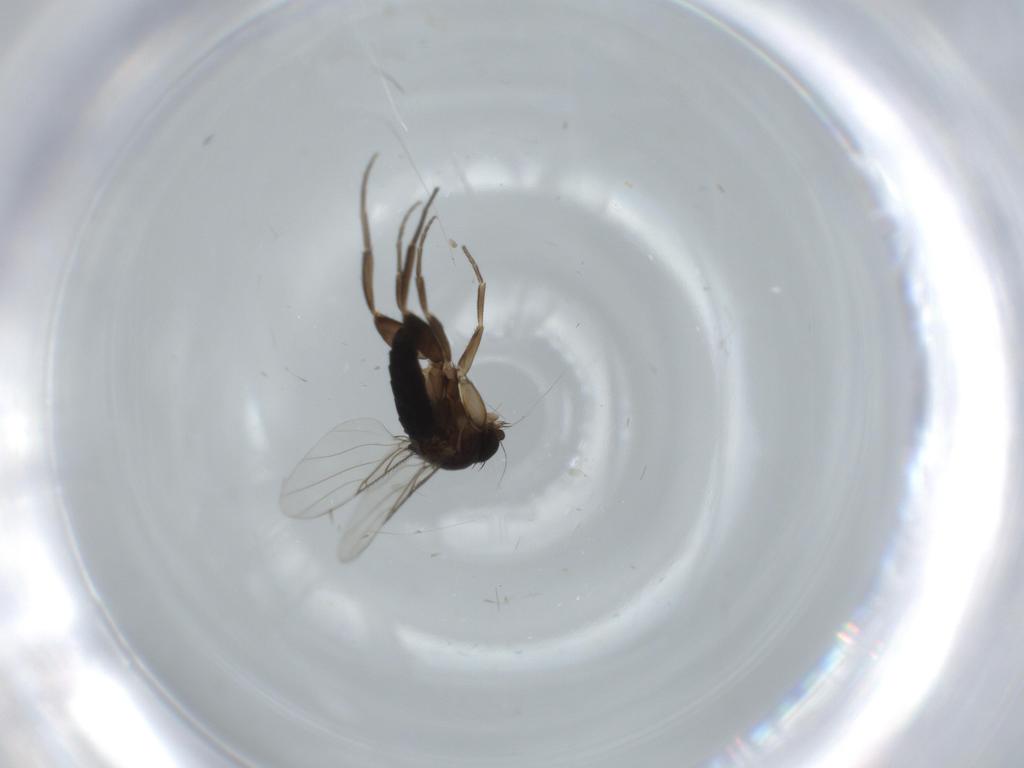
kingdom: Animalia
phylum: Arthropoda
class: Insecta
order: Diptera
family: Phoridae
